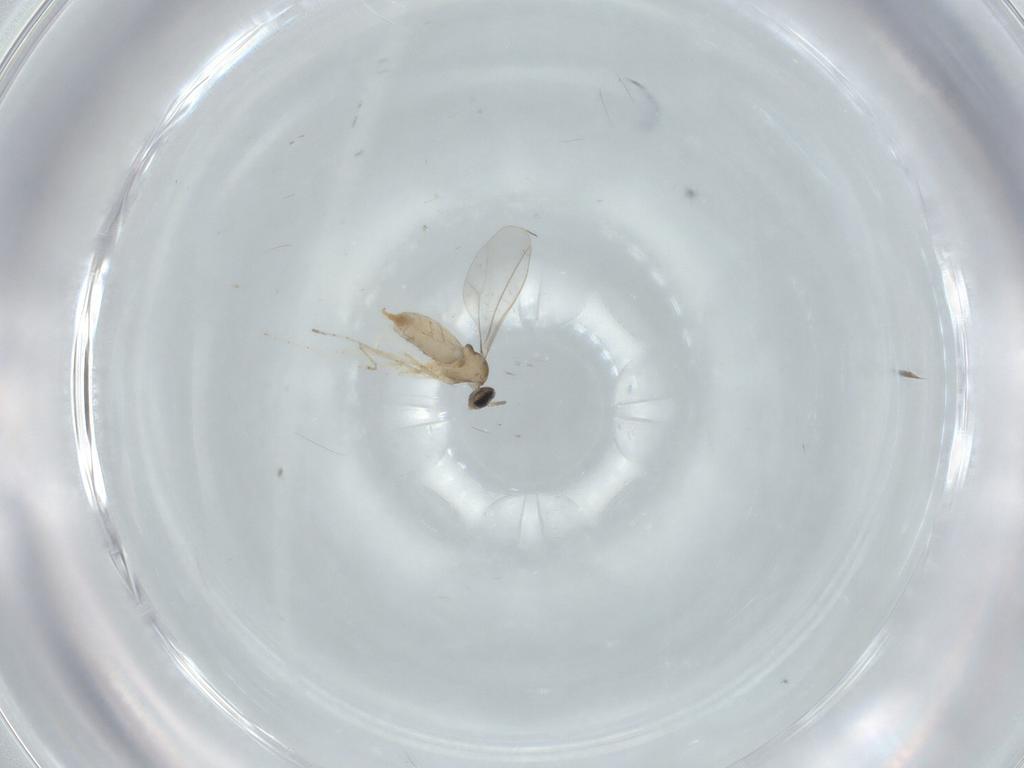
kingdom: Animalia
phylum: Arthropoda
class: Insecta
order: Diptera
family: Cecidomyiidae
